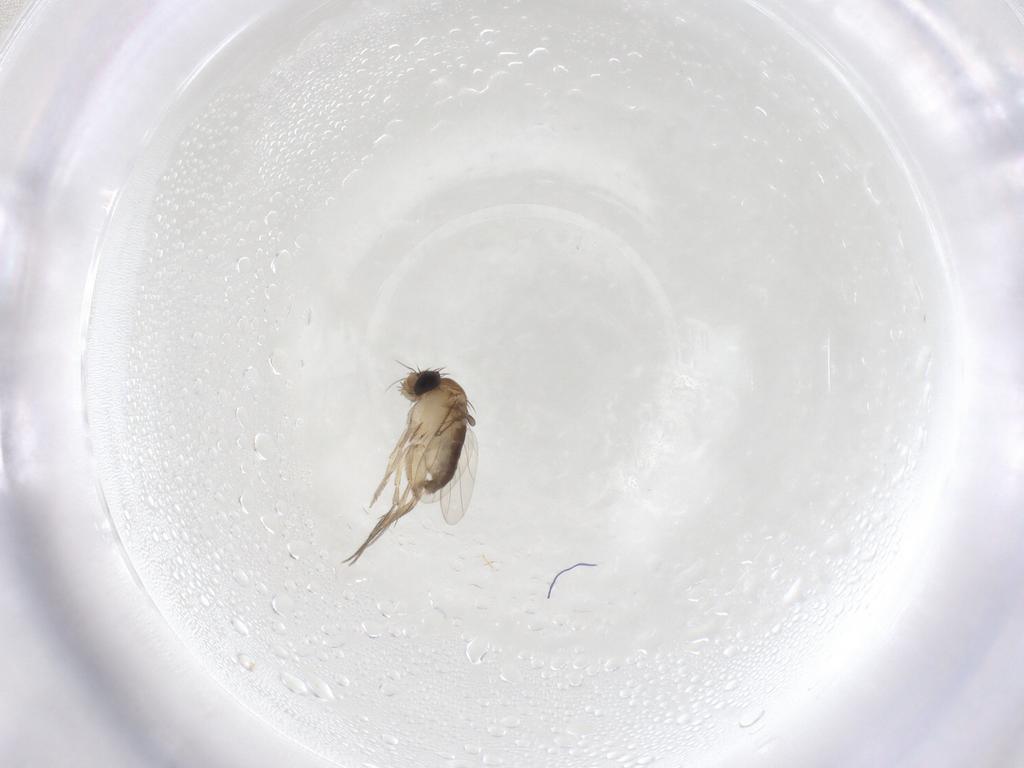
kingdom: Animalia
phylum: Arthropoda
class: Insecta
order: Diptera
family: Phoridae
